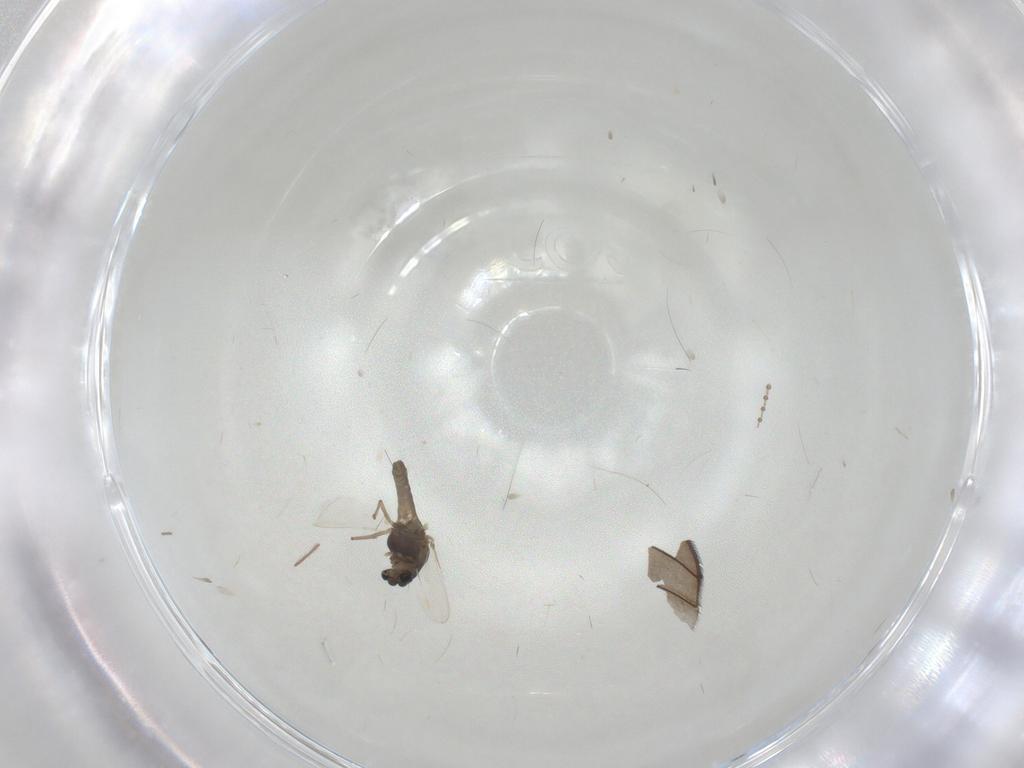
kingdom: Animalia
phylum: Arthropoda
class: Insecta
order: Diptera
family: Chironomidae
